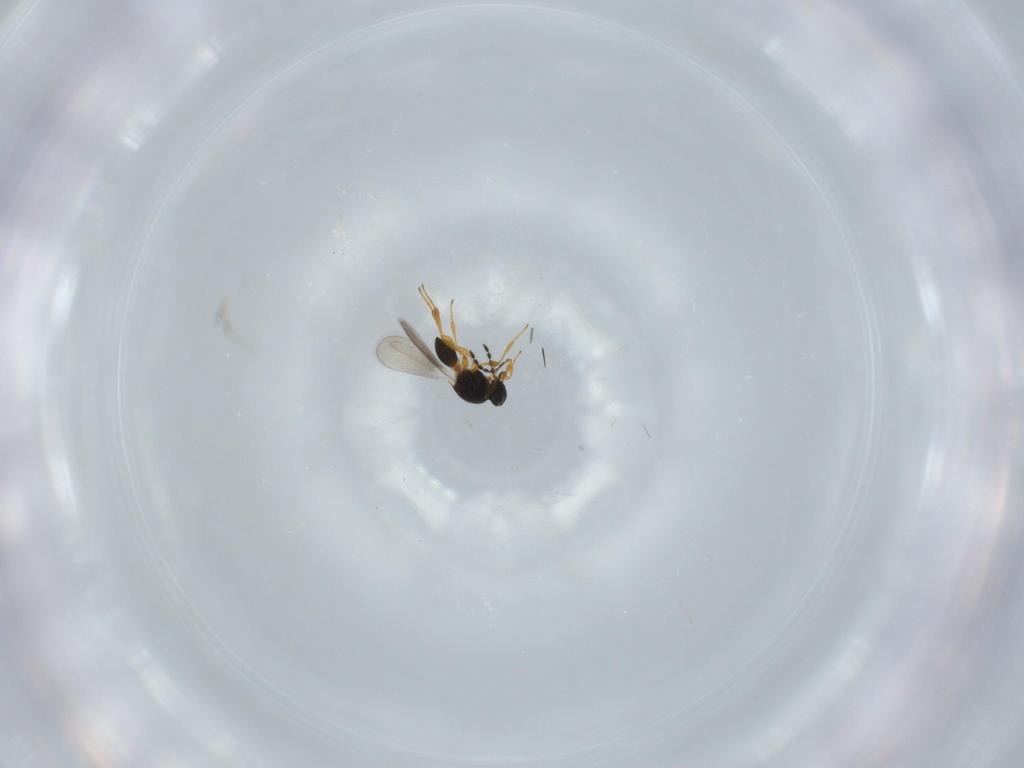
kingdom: Animalia
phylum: Arthropoda
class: Insecta
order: Hymenoptera
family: Platygastridae
